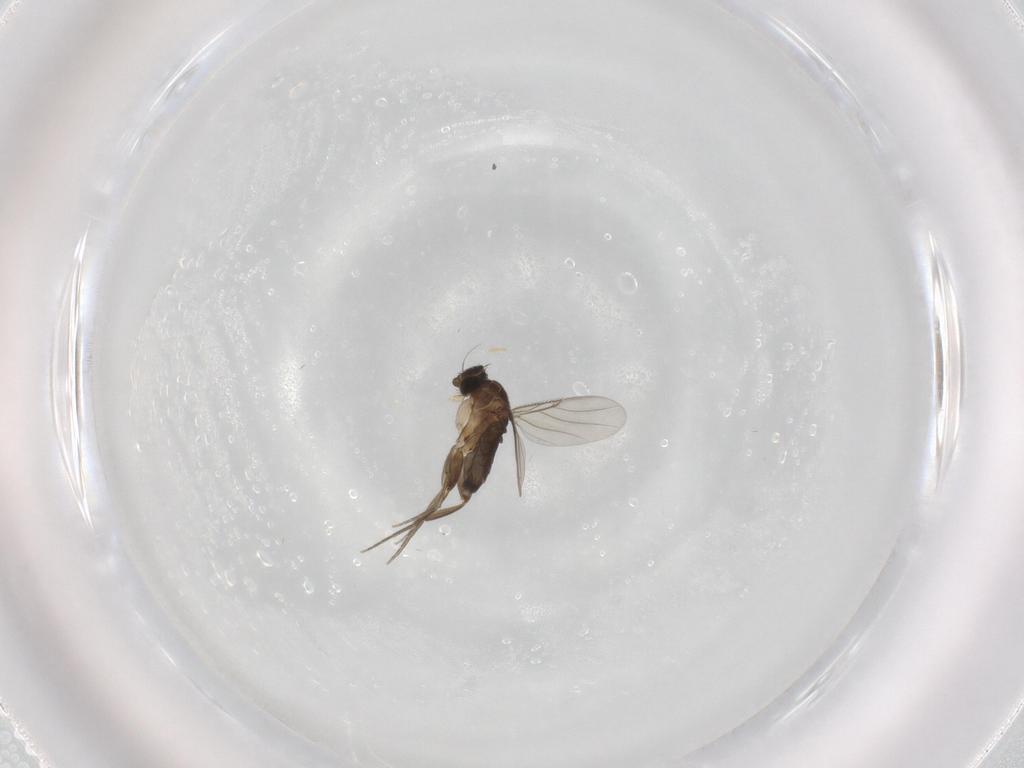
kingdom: Animalia
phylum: Arthropoda
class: Insecta
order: Diptera
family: Phoridae
